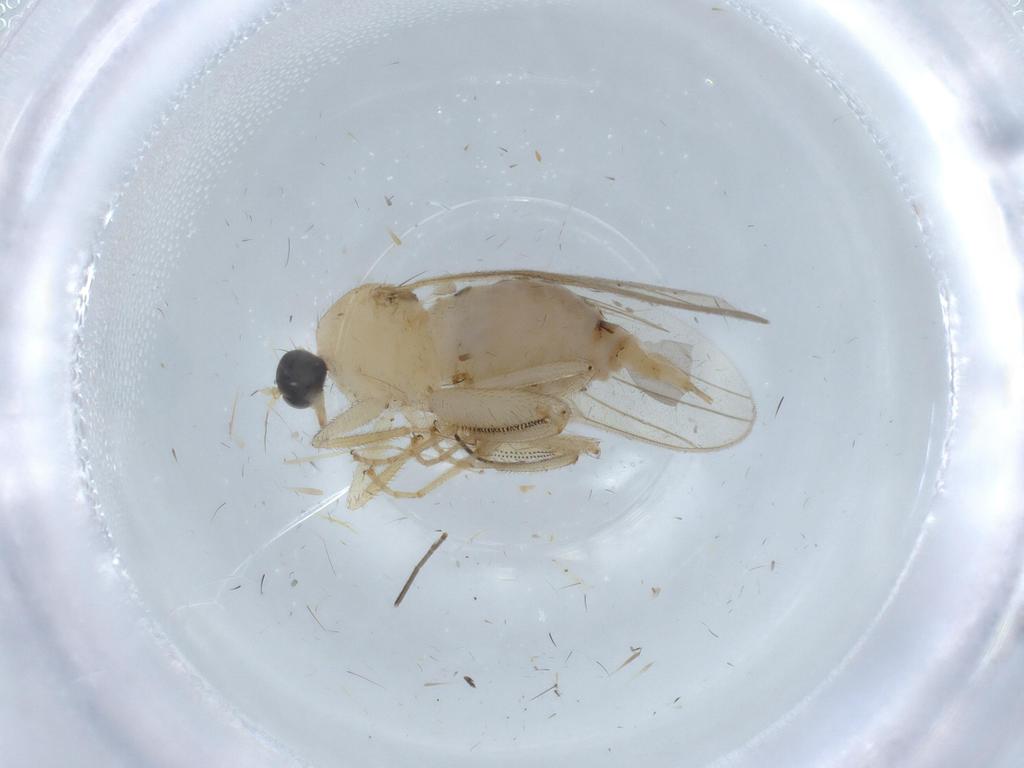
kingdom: Animalia
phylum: Arthropoda
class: Insecta
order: Diptera
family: Hybotidae
